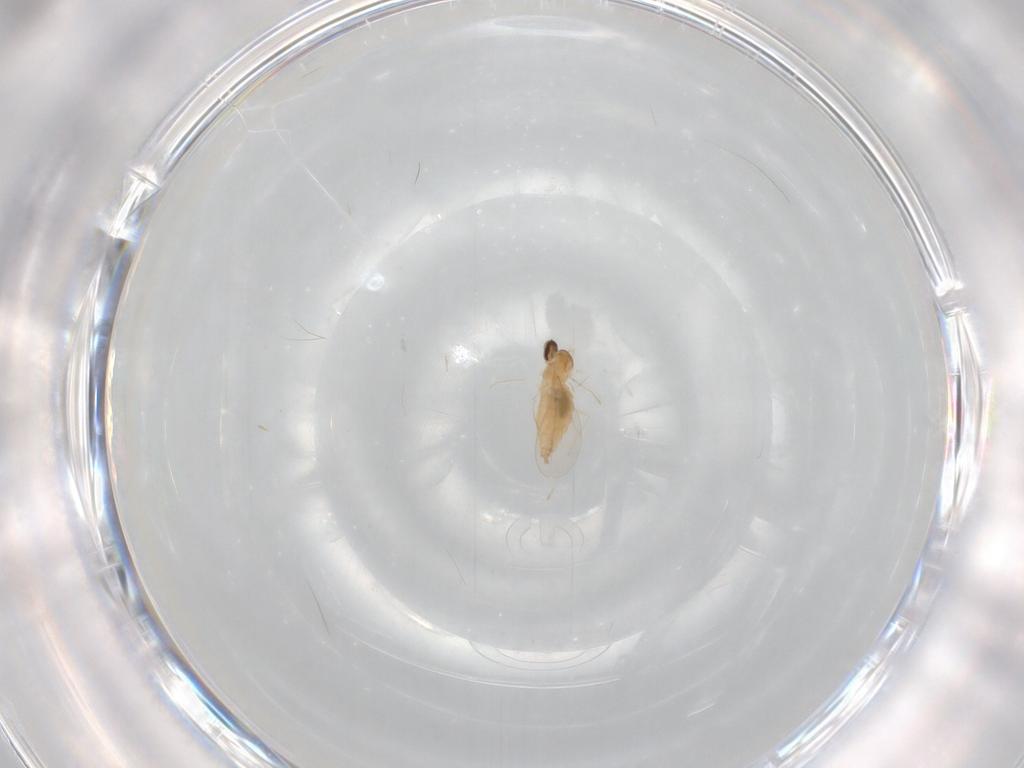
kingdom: Animalia
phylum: Arthropoda
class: Insecta
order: Diptera
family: Cecidomyiidae
